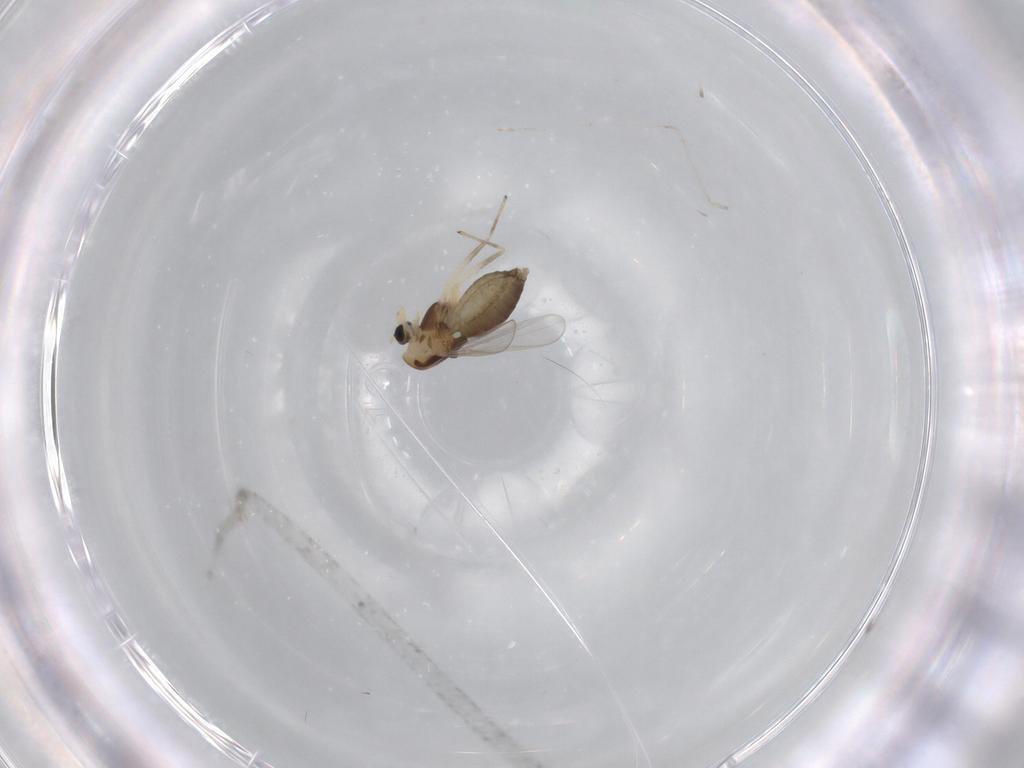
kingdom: Animalia
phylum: Arthropoda
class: Insecta
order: Diptera
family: Chironomidae
